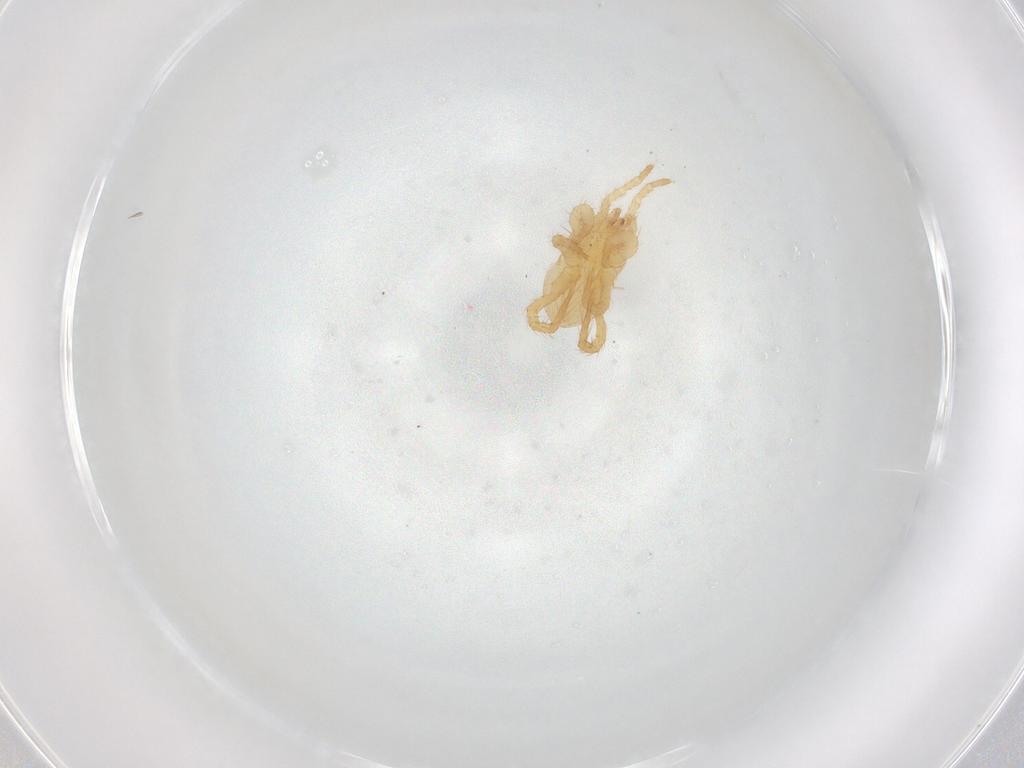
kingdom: Animalia
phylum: Arthropoda
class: Arachnida
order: Mesostigmata
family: Parasitidae
